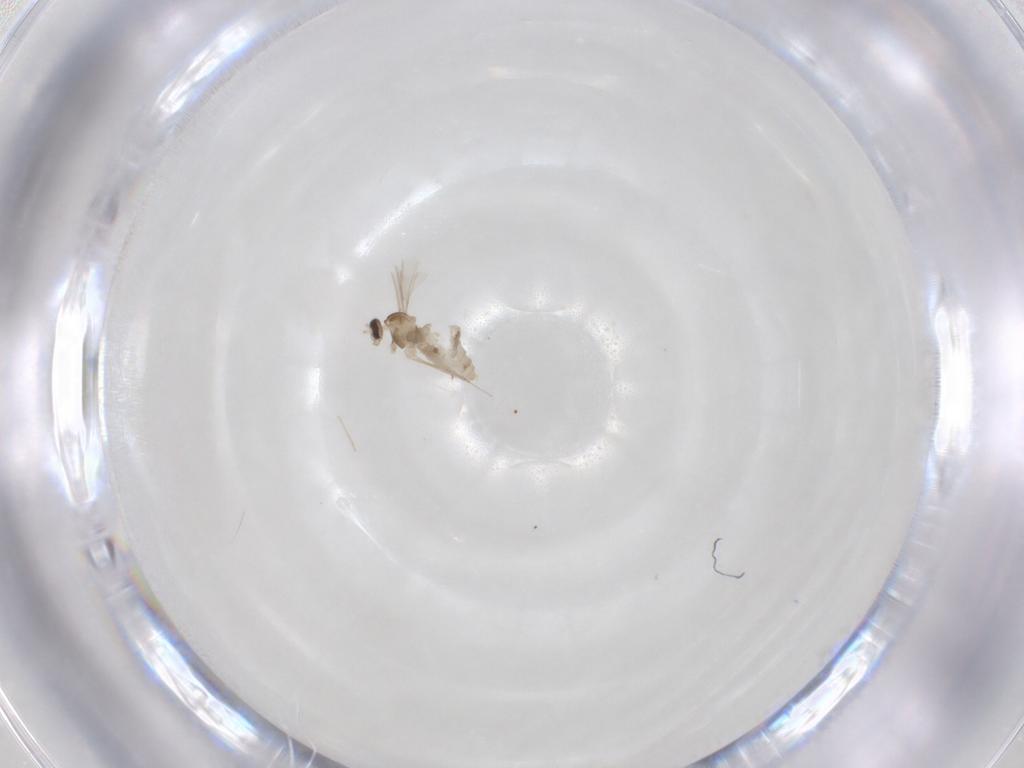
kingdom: Animalia
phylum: Arthropoda
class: Insecta
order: Diptera
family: Cecidomyiidae
